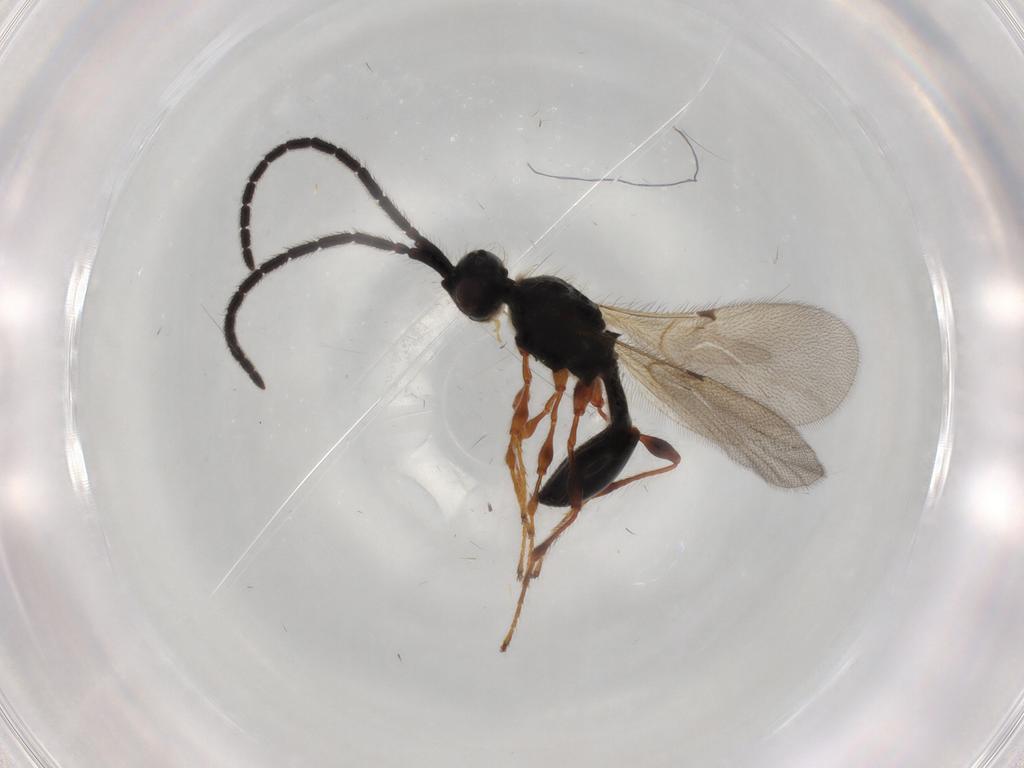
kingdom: Animalia
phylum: Arthropoda
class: Insecta
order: Hymenoptera
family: Diapriidae
